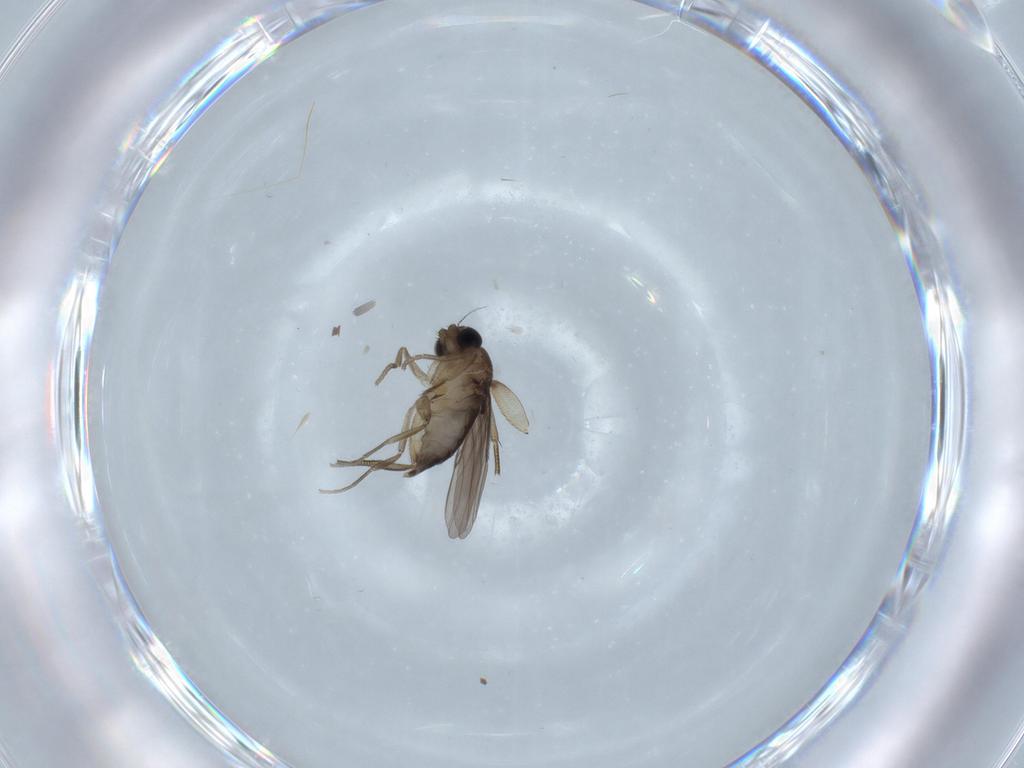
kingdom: Animalia
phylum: Arthropoda
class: Insecta
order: Diptera
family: Phoridae
